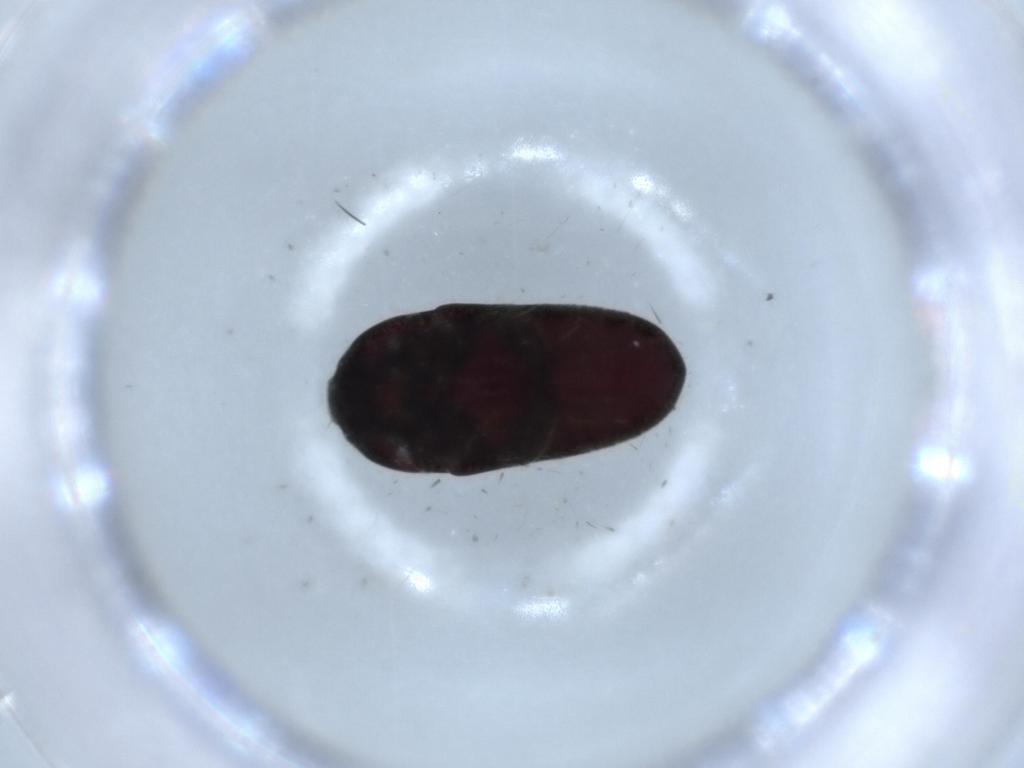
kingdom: Animalia
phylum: Arthropoda
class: Insecta
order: Coleoptera
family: Throscidae
